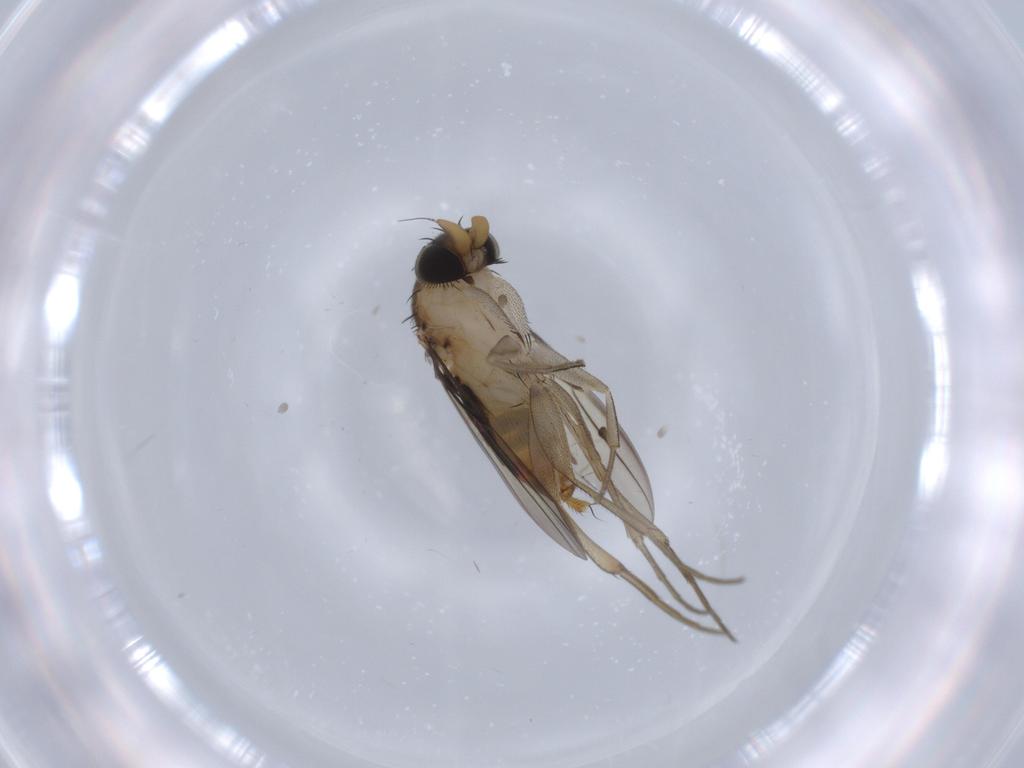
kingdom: Animalia
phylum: Arthropoda
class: Insecta
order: Diptera
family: Phoridae
